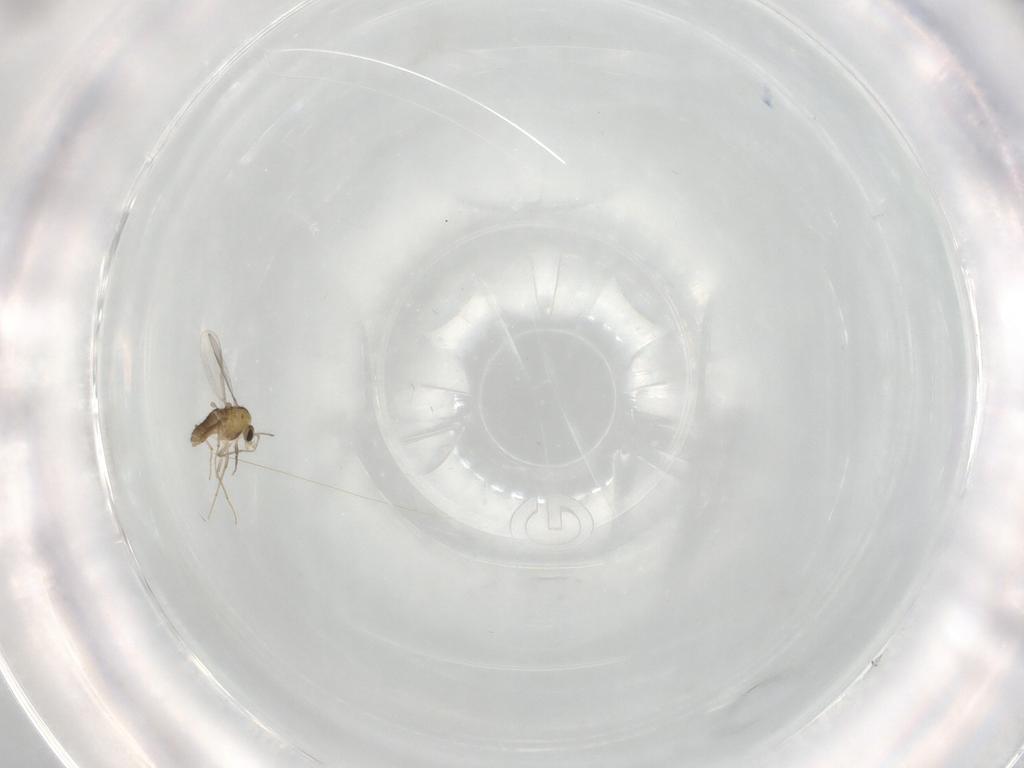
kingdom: Animalia
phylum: Arthropoda
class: Insecta
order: Diptera
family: Chironomidae
